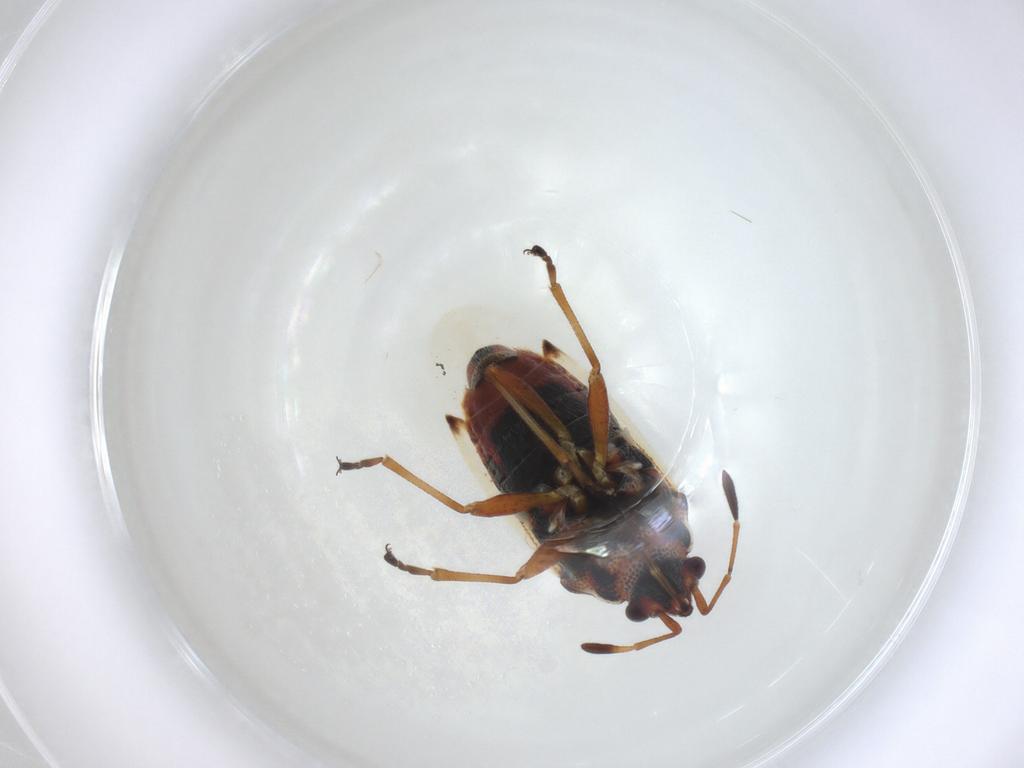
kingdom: Animalia
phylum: Arthropoda
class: Insecta
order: Hemiptera
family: Lygaeidae
